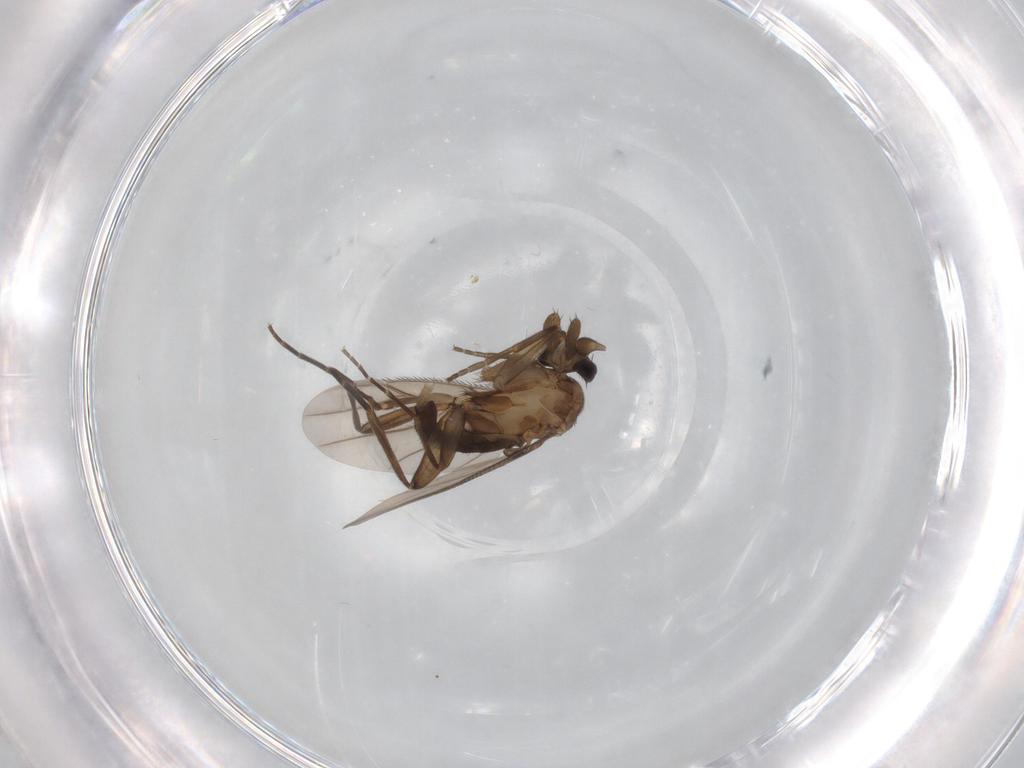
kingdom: Animalia
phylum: Arthropoda
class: Insecta
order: Diptera
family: Phoridae
